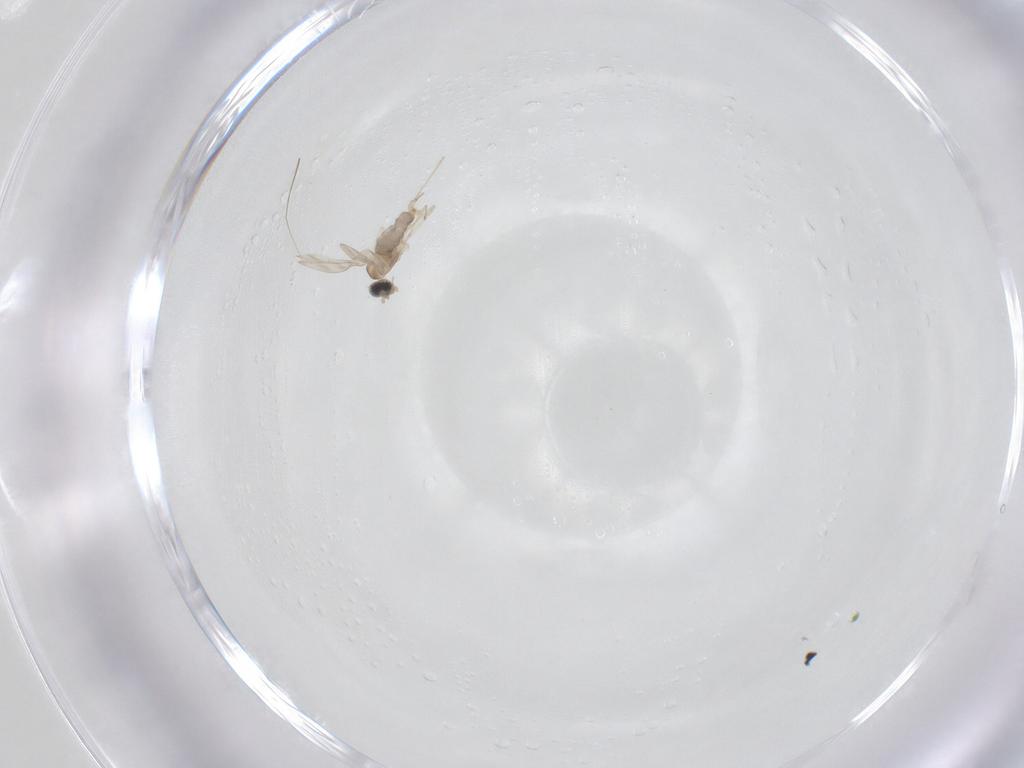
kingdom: Animalia
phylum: Arthropoda
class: Insecta
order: Diptera
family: Cecidomyiidae
